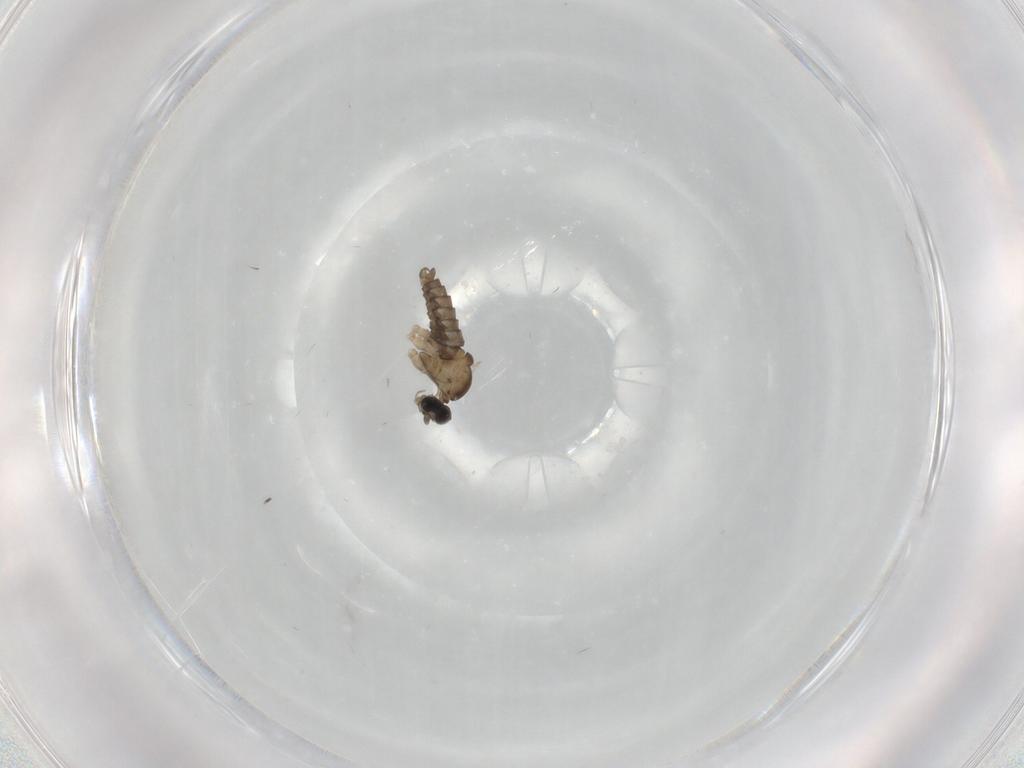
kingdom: Animalia
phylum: Arthropoda
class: Insecta
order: Diptera
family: Cecidomyiidae
